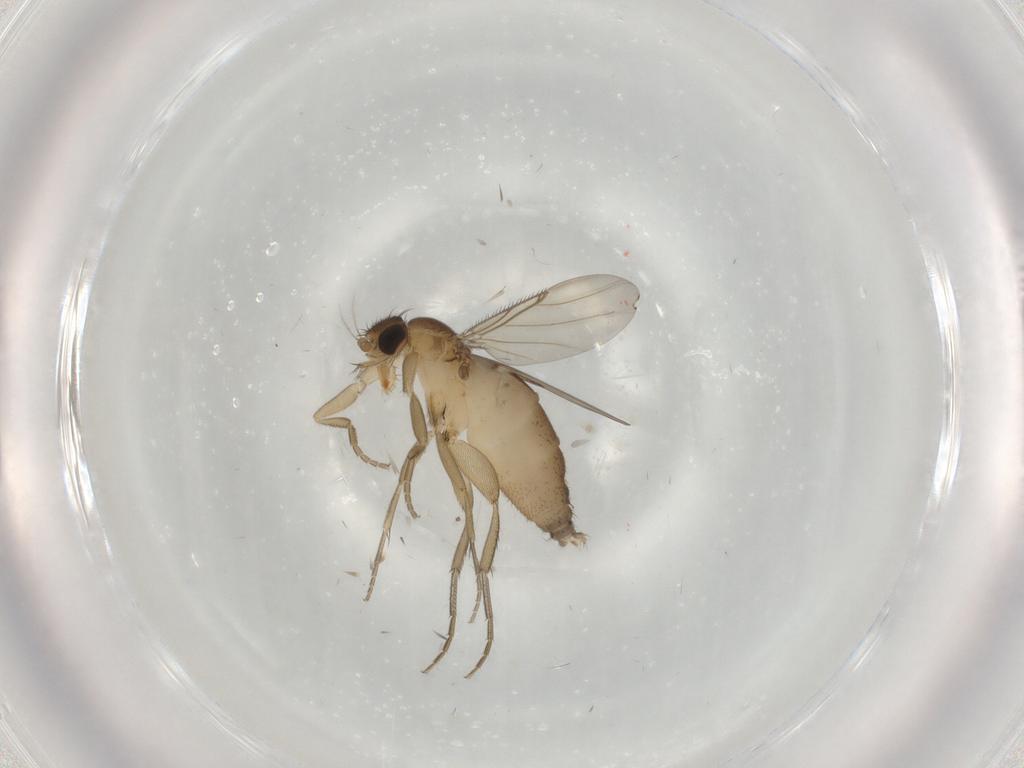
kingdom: Animalia
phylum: Arthropoda
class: Insecta
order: Diptera
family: Phoridae
